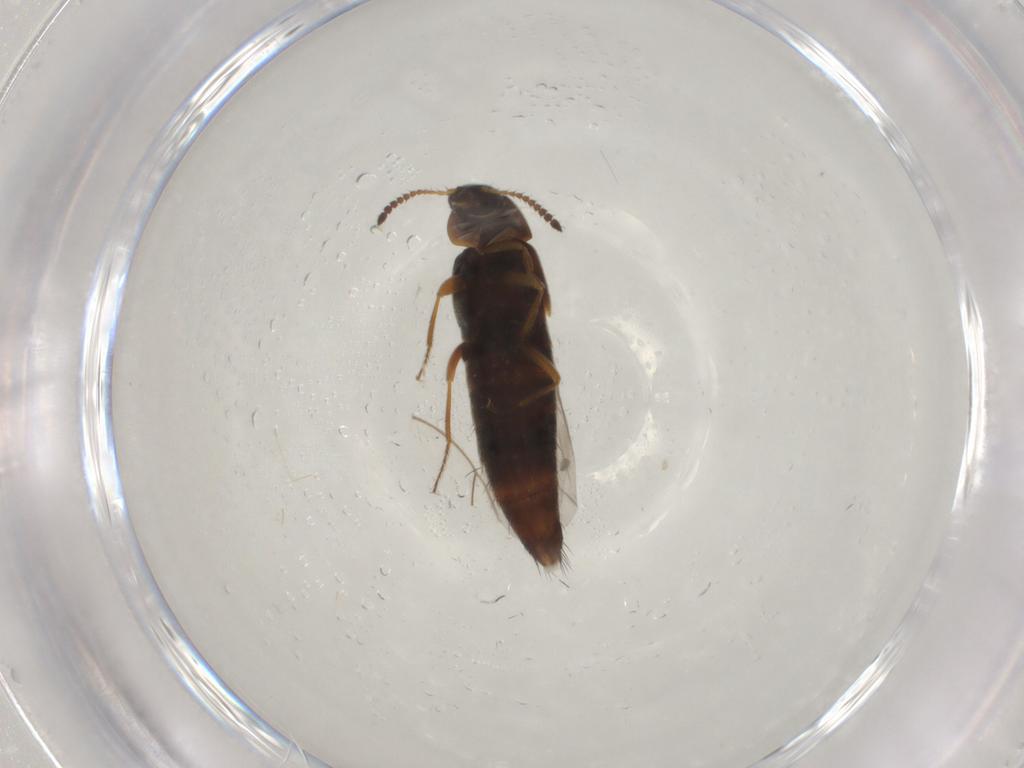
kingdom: Animalia
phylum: Arthropoda
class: Insecta
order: Coleoptera
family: Staphylinidae
